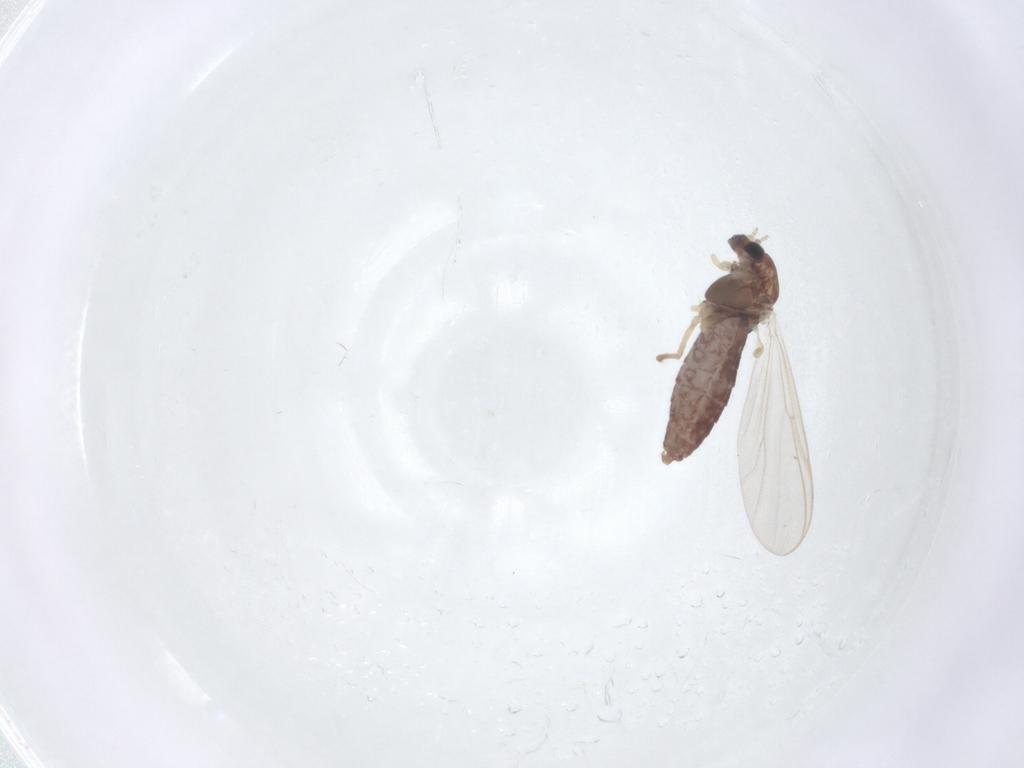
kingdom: Animalia
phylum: Arthropoda
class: Insecta
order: Diptera
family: Chironomidae
